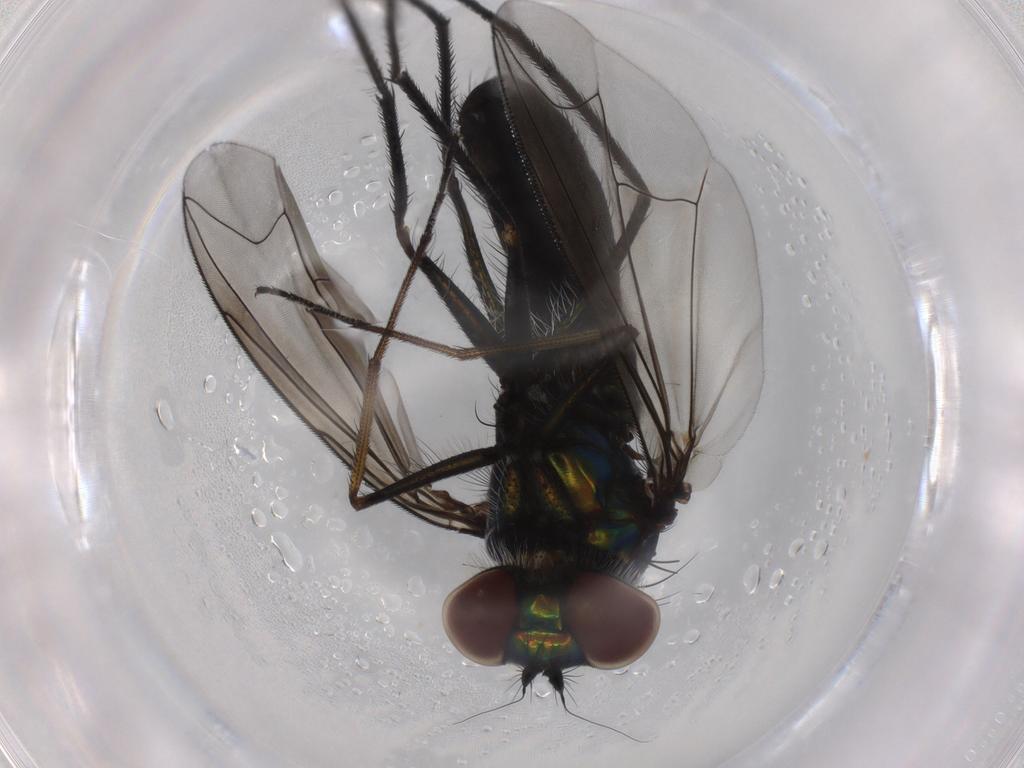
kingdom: Animalia
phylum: Arthropoda
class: Insecta
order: Diptera
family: Dolichopodidae
